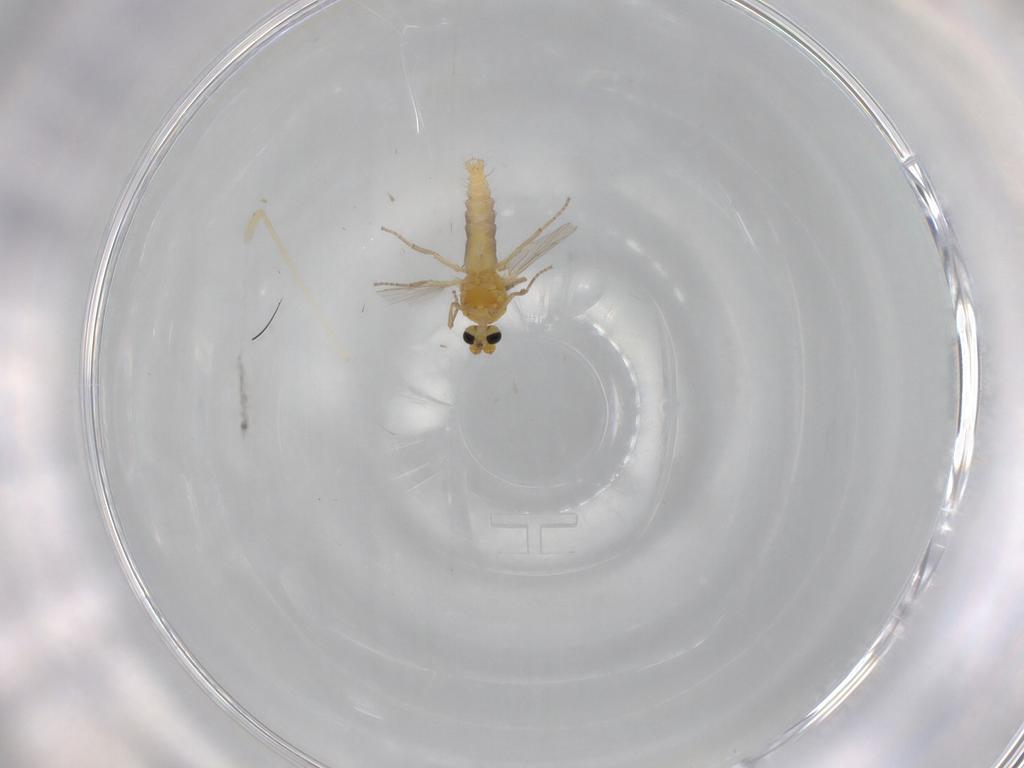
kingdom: Animalia
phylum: Arthropoda
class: Insecta
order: Diptera
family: Ceratopogonidae
